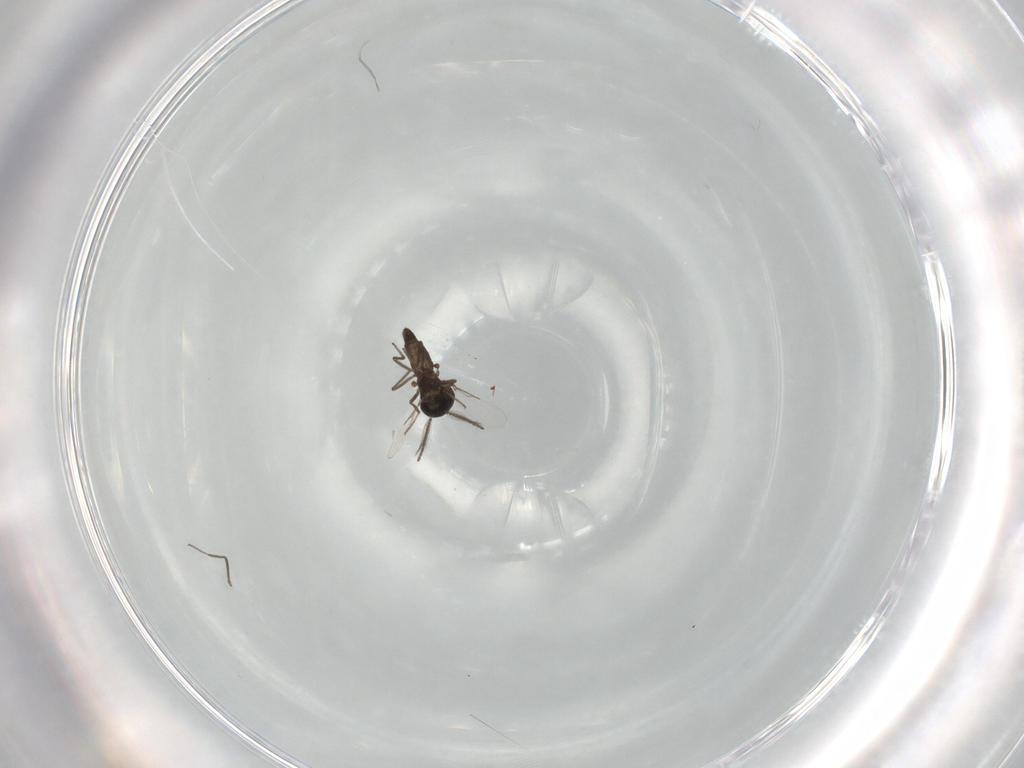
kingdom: Animalia
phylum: Arthropoda
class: Insecta
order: Diptera
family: Ceratopogonidae
